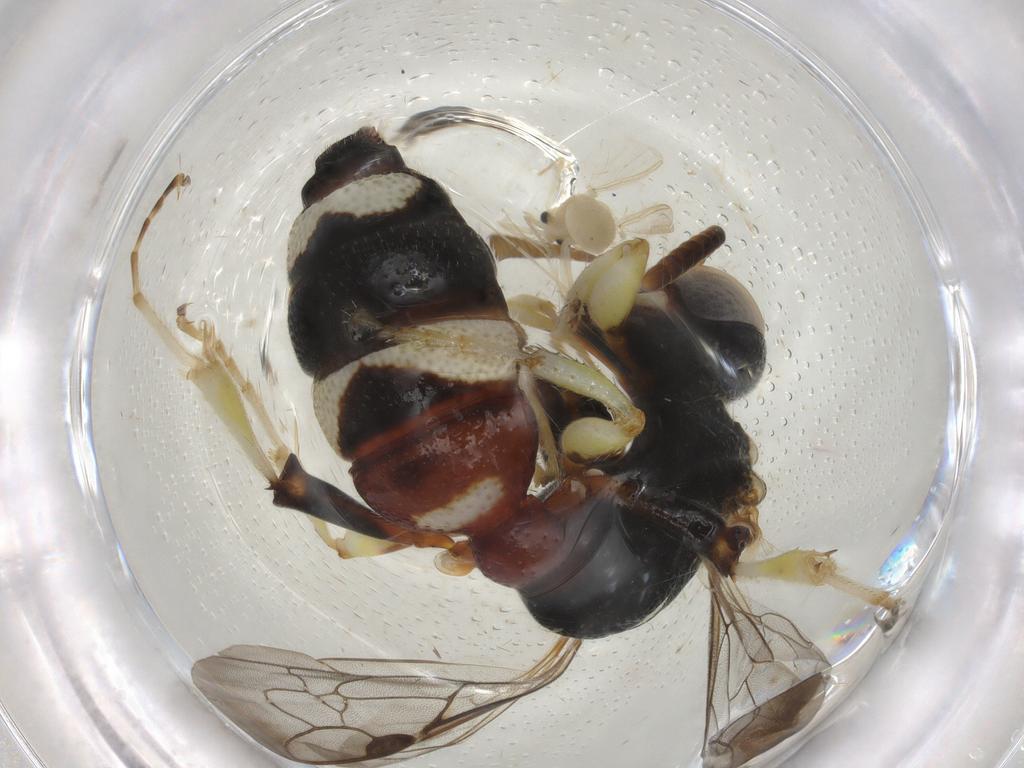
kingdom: Animalia
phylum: Arthropoda
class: Insecta
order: Hymenoptera
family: Crabronidae
